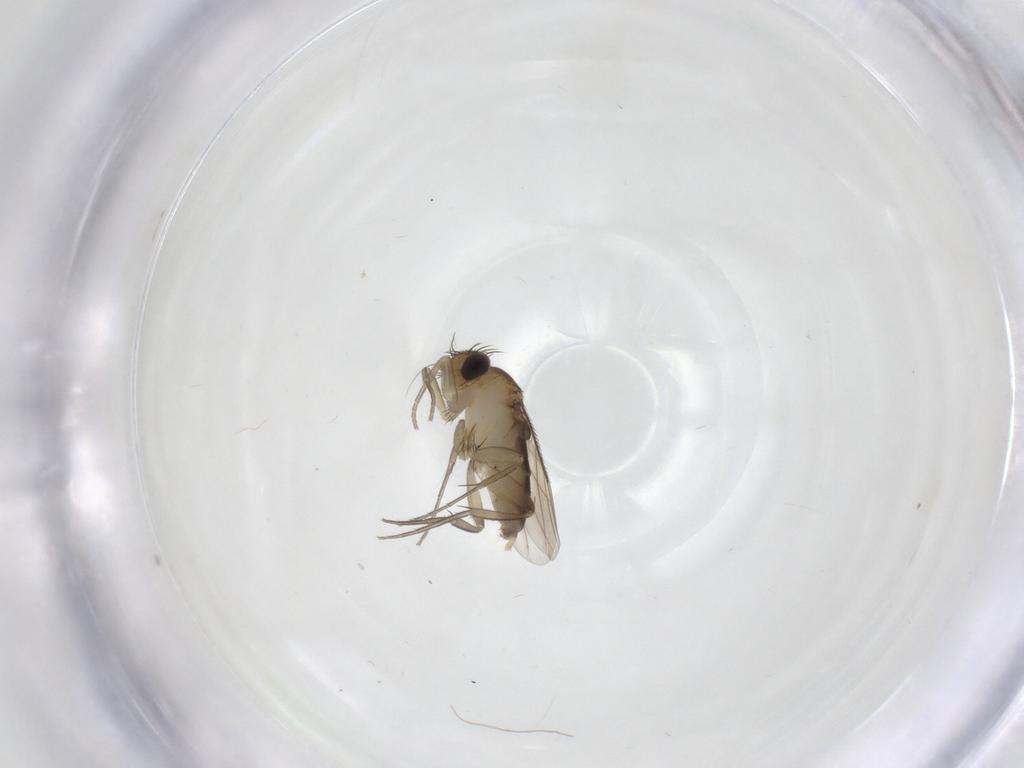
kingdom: Animalia
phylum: Arthropoda
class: Insecta
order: Diptera
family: Phoridae
